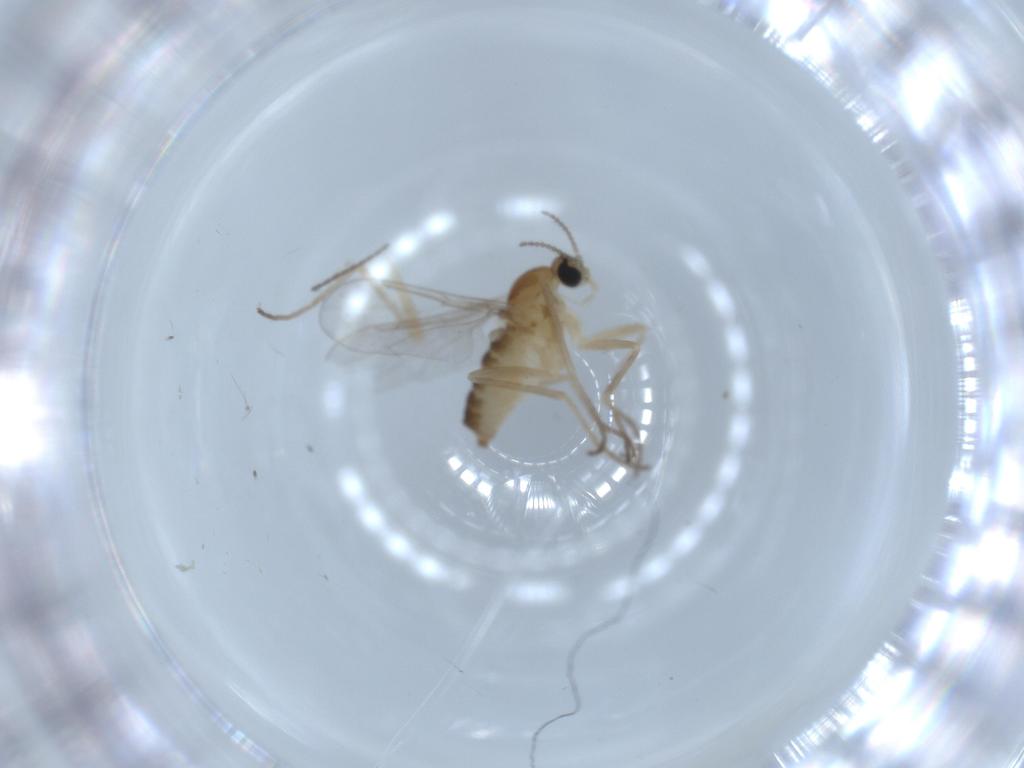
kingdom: Animalia
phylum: Arthropoda
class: Insecta
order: Diptera
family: Cecidomyiidae
